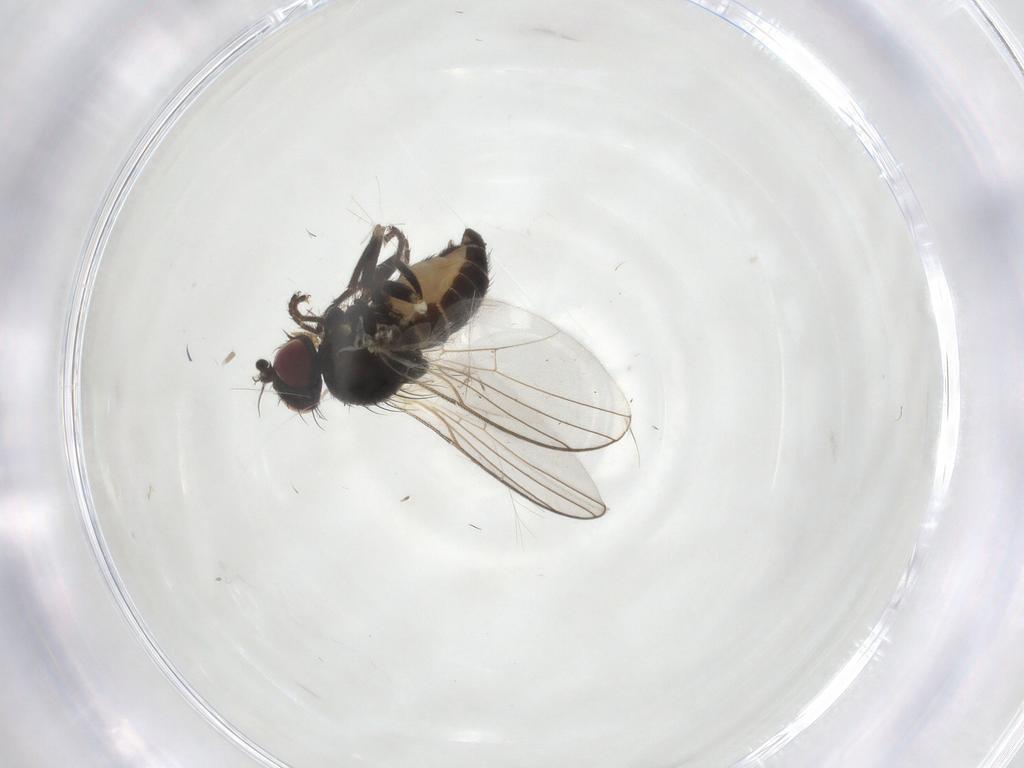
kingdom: Animalia
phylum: Arthropoda
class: Insecta
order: Diptera
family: Agromyzidae
